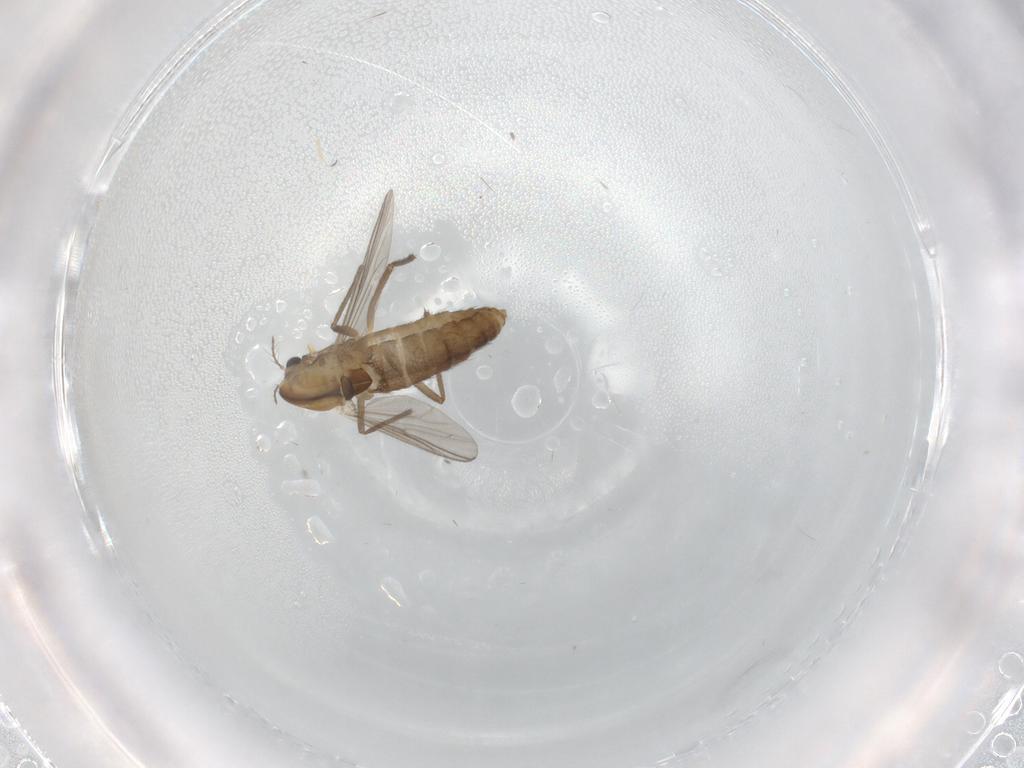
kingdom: Animalia
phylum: Arthropoda
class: Insecta
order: Diptera
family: Chironomidae
